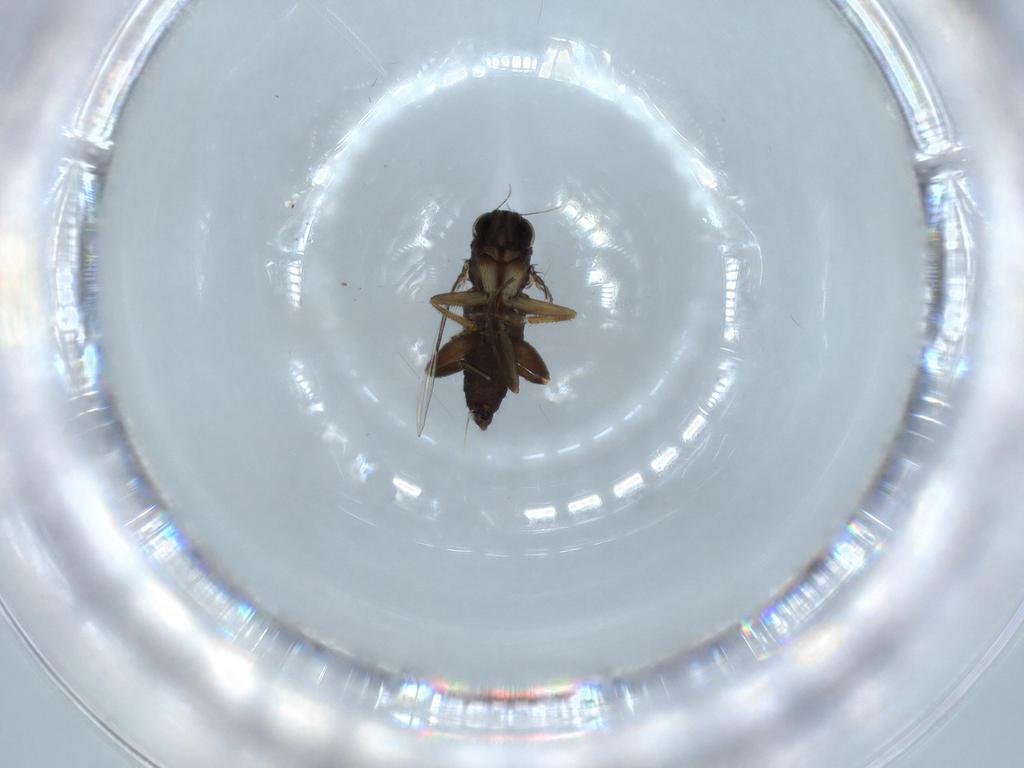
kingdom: Animalia
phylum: Arthropoda
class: Insecta
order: Diptera
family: Phoridae
